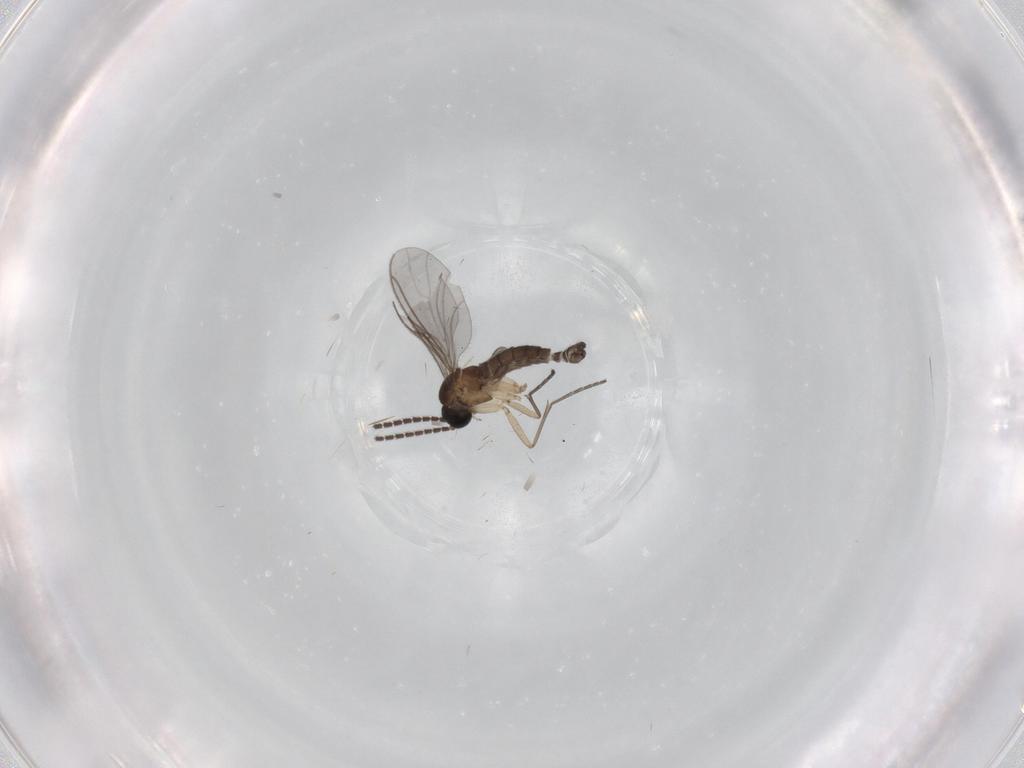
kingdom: Animalia
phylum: Arthropoda
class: Insecta
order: Diptera
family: Sciaridae
